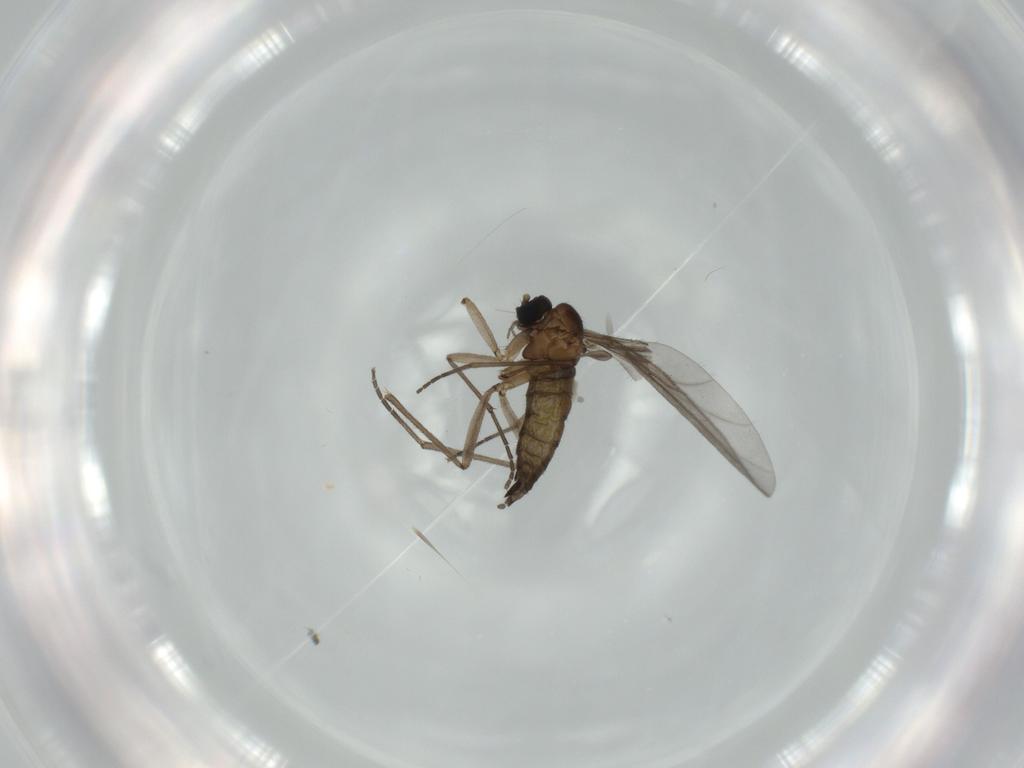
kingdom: Animalia
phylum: Arthropoda
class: Insecta
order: Diptera
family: Sciaridae
